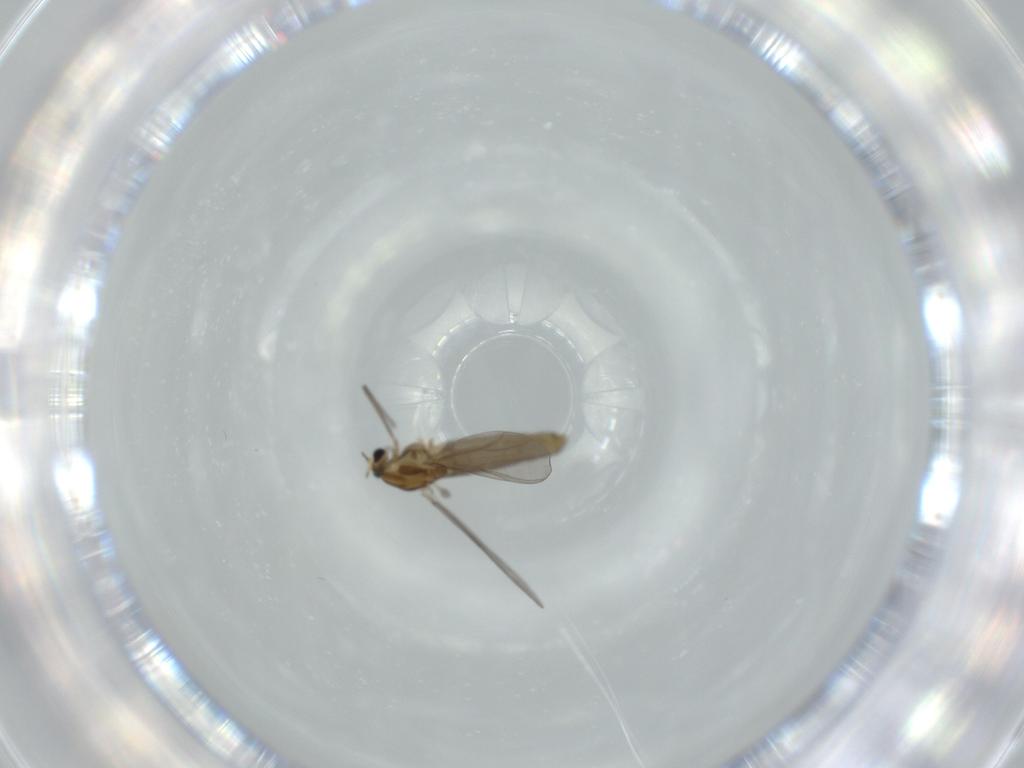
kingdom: Animalia
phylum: Arthropoda
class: Insecta
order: Diptera
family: Chironomidae
